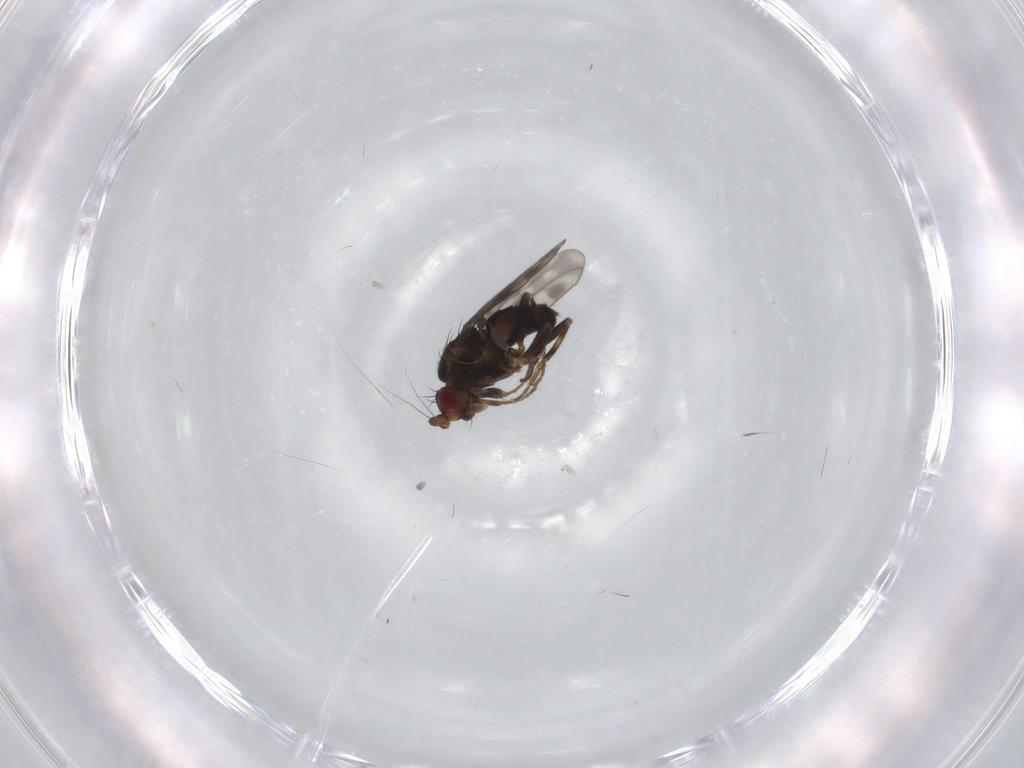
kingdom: Animalia
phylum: Arthropoda
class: Insecta
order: Diptera
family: Sphaeroceridae
